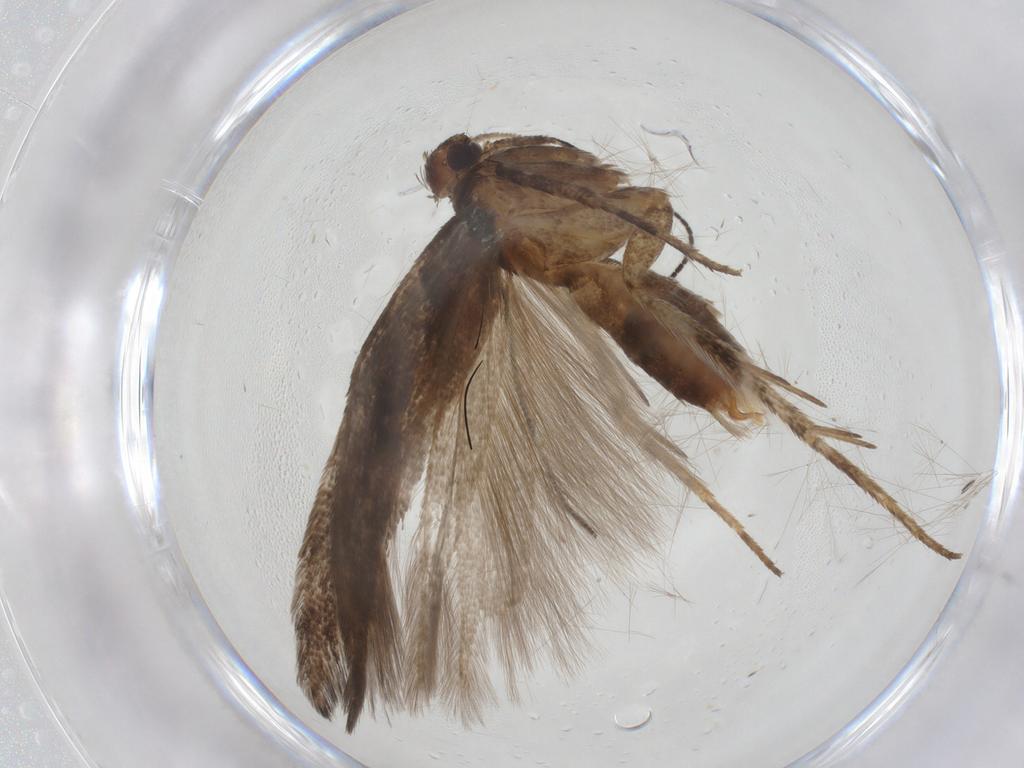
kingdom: Animalia
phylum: Arthropoda
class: Insecta
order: Lepidoptera
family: Gelechiidae
